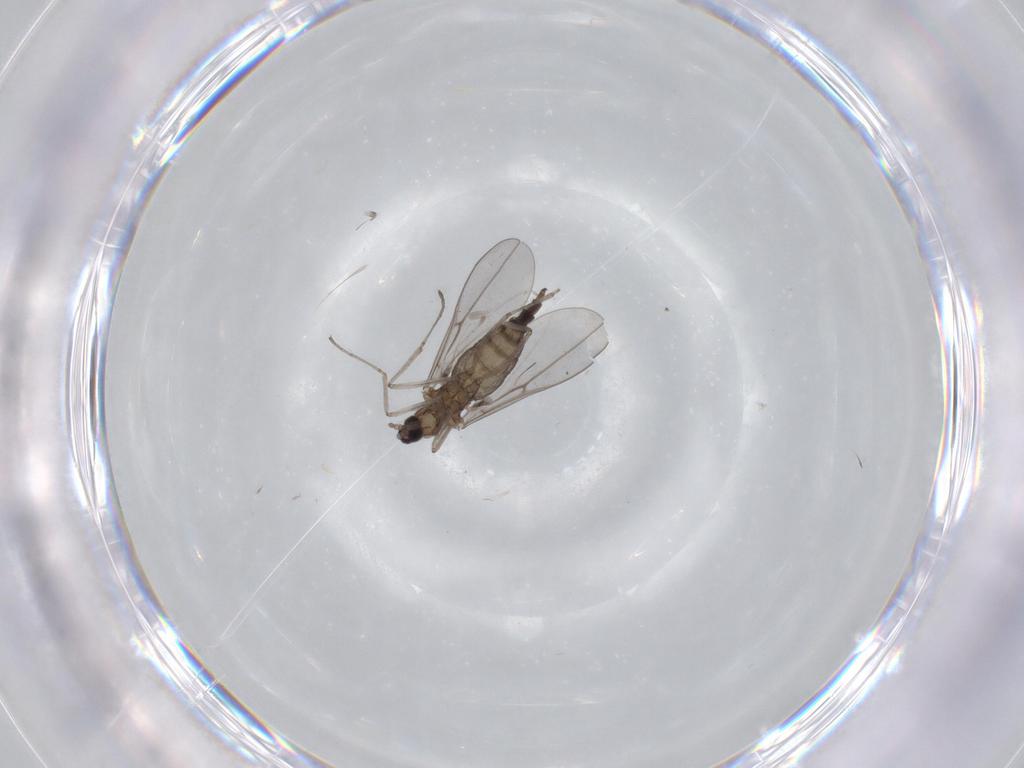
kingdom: Animalia
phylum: Arthropoda
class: Insecta
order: Diptera
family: Cecidomyiidae
